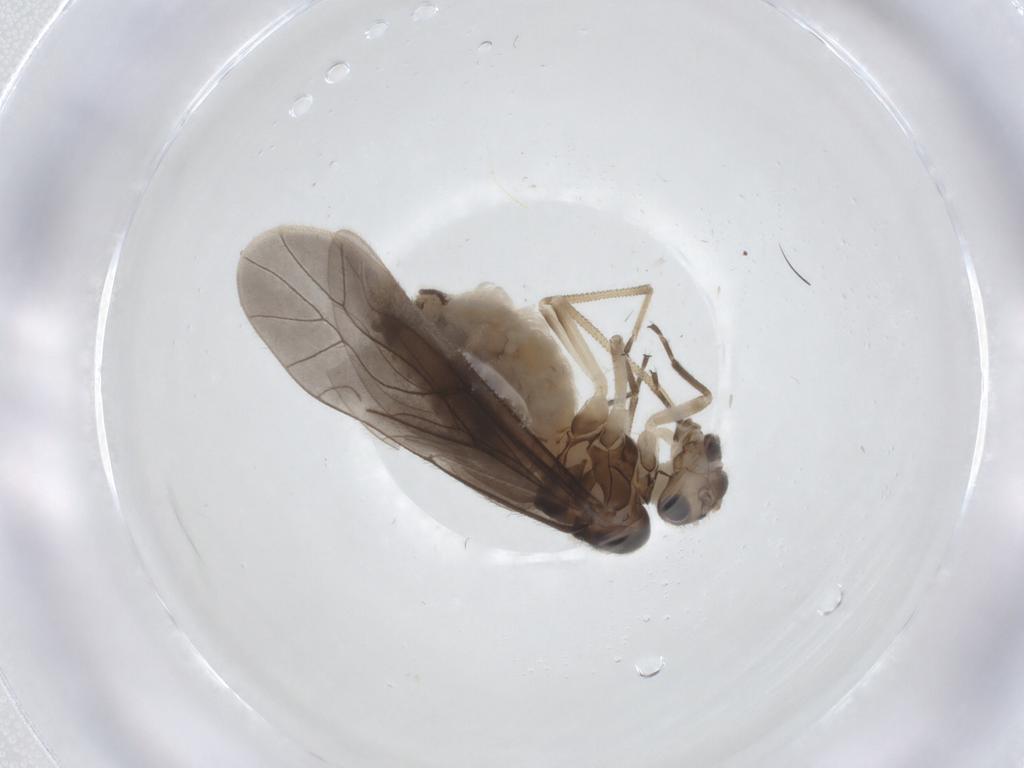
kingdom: Animalia
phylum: Arthropoda
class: Insecta
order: Psocodea
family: Caeciliusidae
